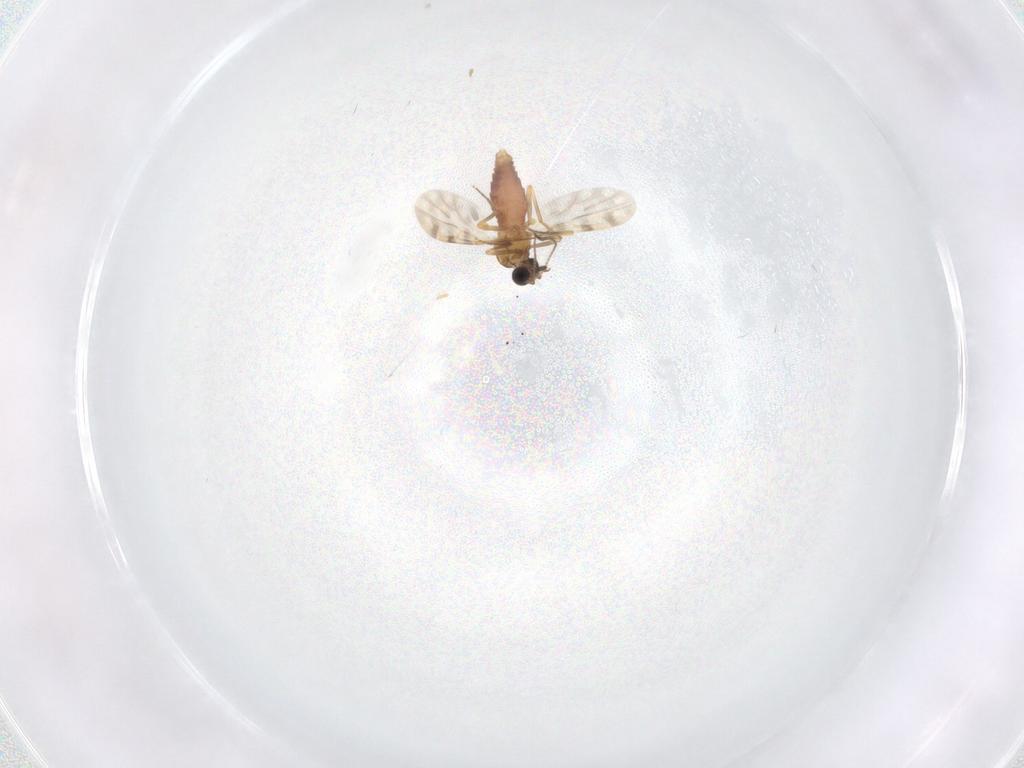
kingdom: Animalia
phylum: Arthropoda
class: Insecta
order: Diptera
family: Ceratopogonidae
